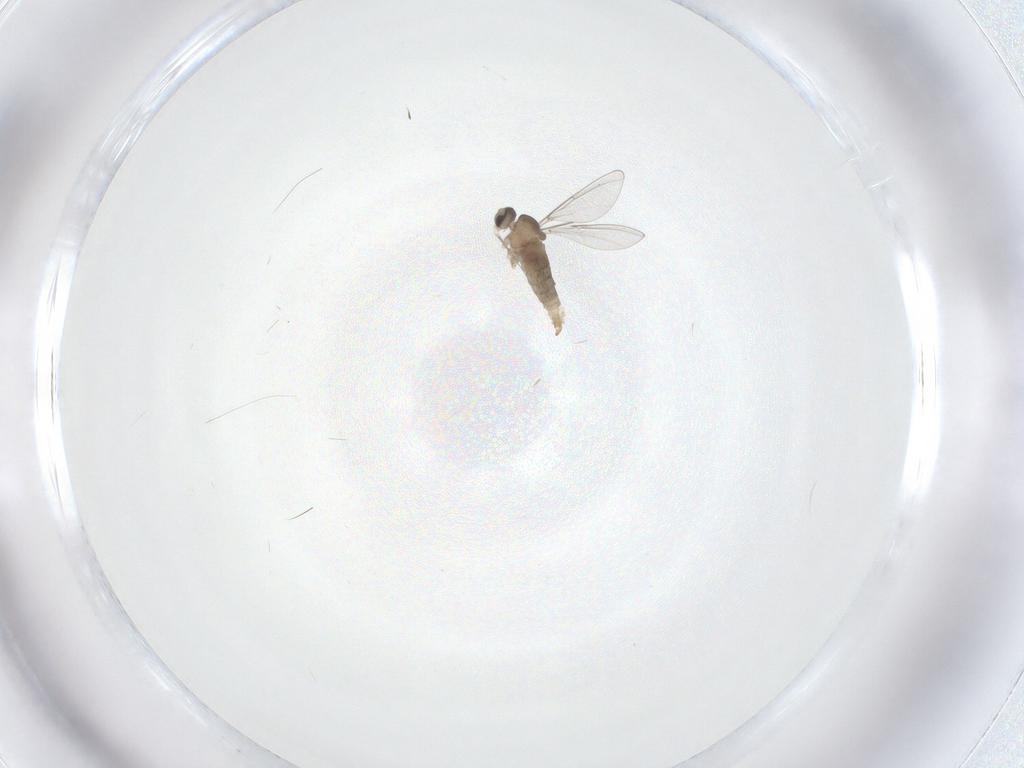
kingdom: Animalia
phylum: Arthropoda
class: Insecta
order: Diptera
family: Cecidomyiidae
